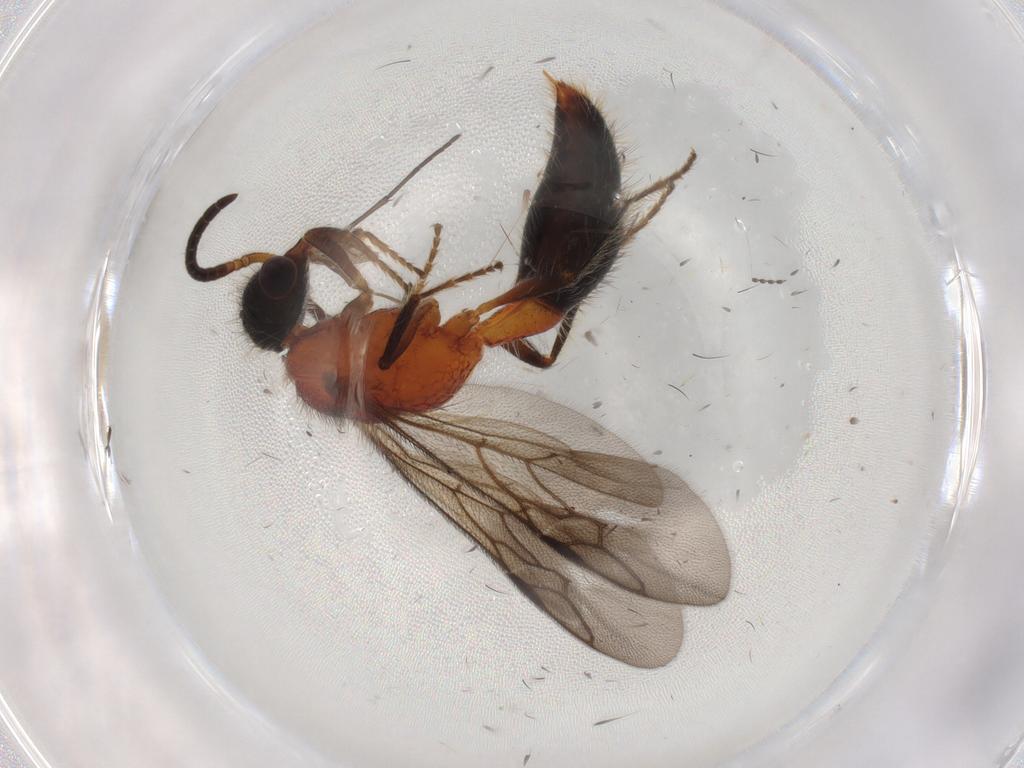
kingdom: Animalia
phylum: Arthropoda
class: Insecta
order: Hymenoptera
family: Mutillidae
